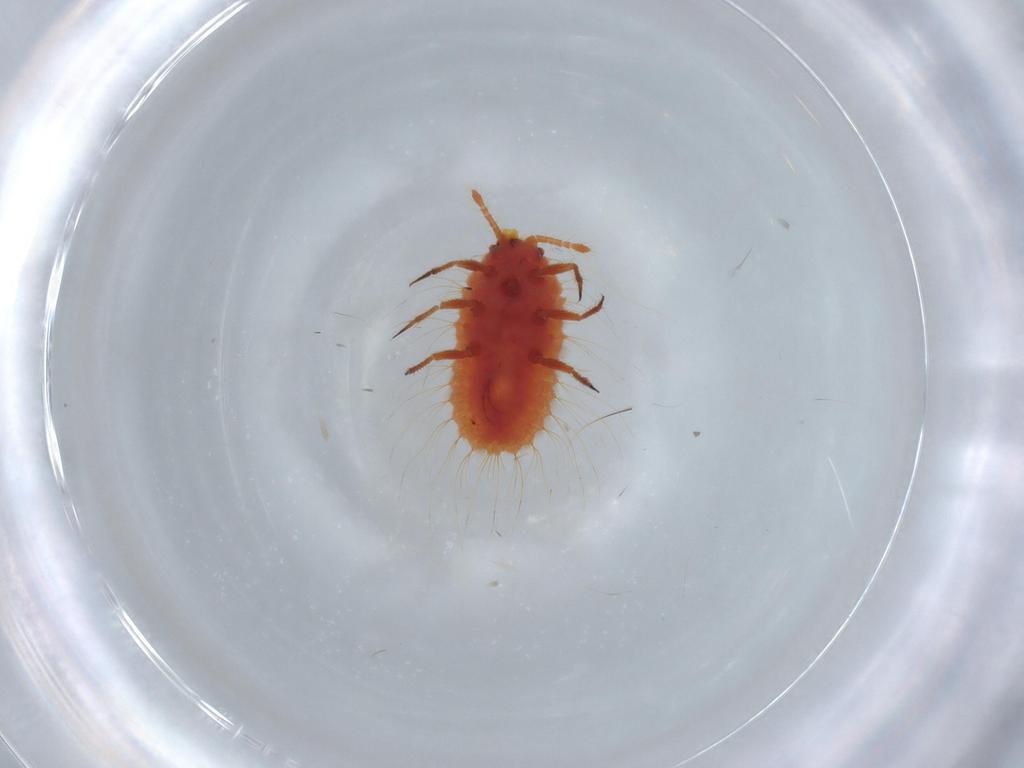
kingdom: Animalia
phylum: Arthropoda
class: Insecta
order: Hemiptera
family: Coccoidea_incertae_sedis
